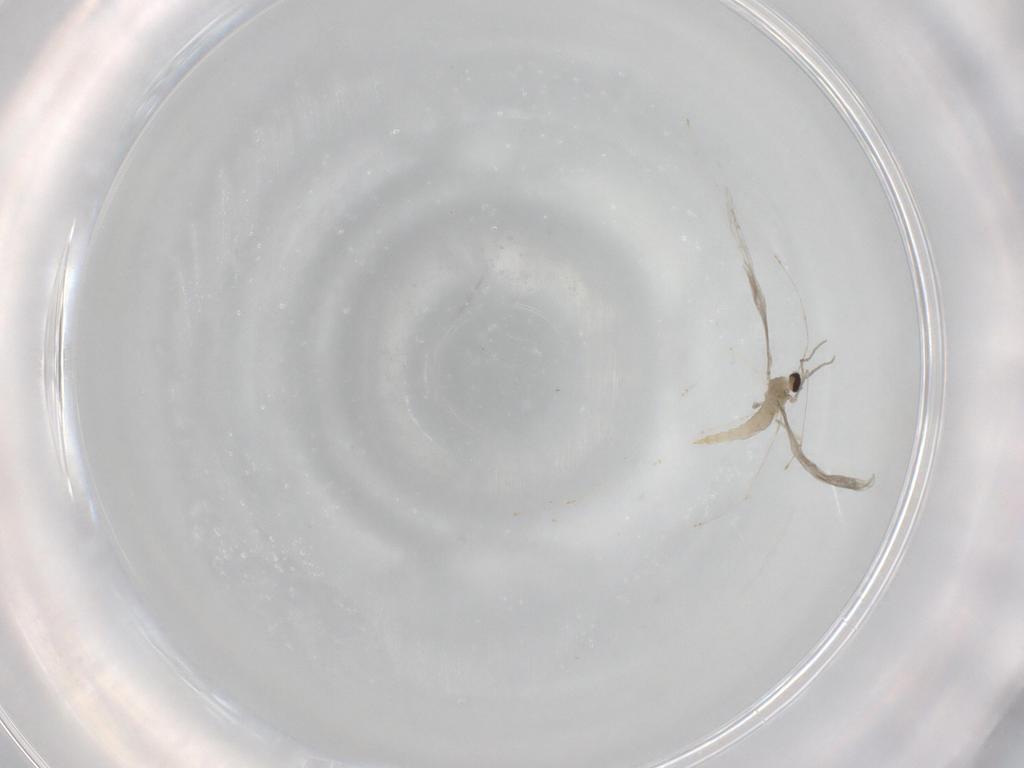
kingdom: Animalia
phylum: Arthropoda
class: Insecta
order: Diptera
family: Cecidomyiidae
